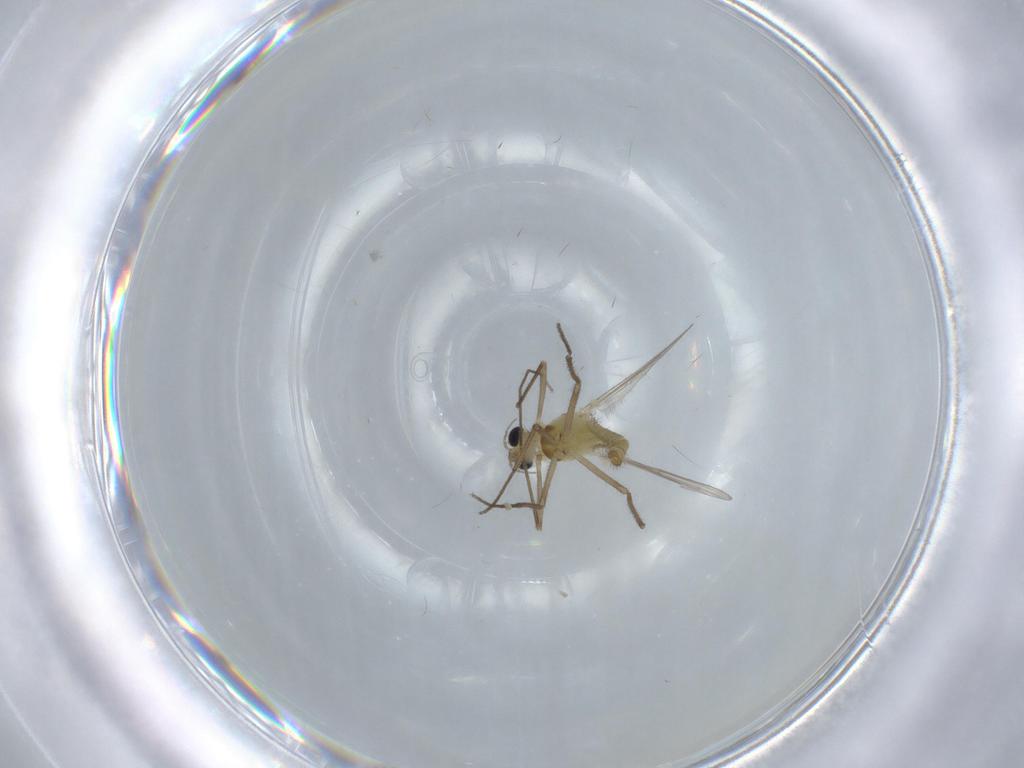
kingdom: Animalia
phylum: Arthropoda
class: Insecta
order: Diptera
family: Chironomidae
